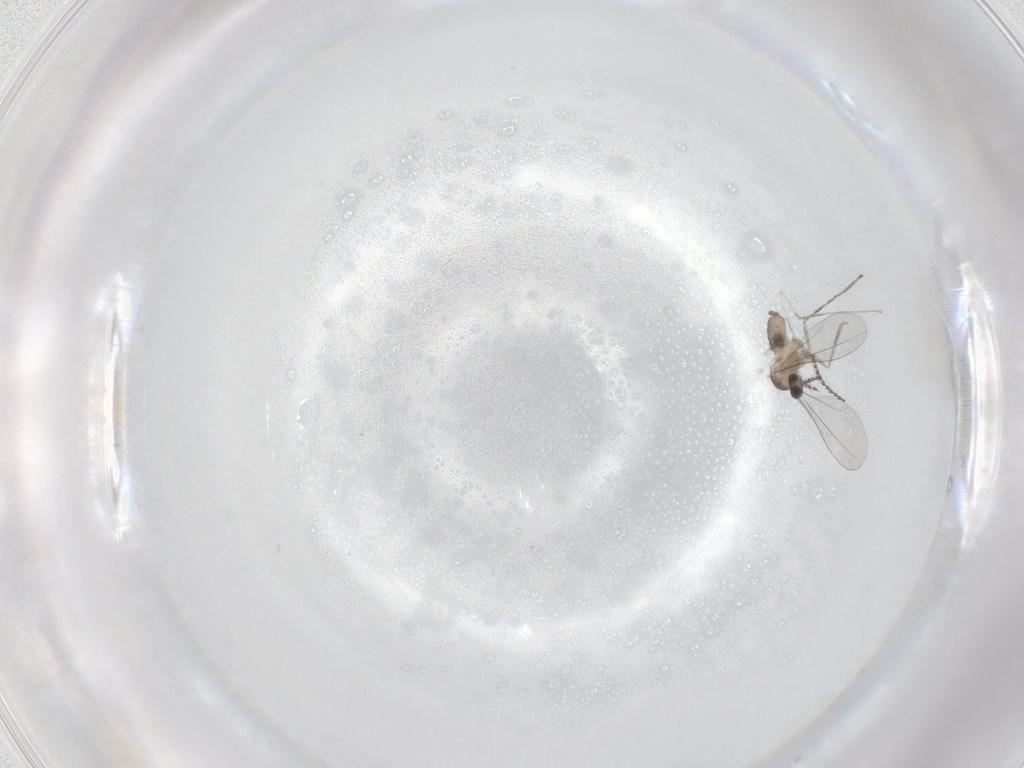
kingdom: Animalia
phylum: Arthropoda
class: Insecta
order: Diptera
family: Cecidomyiidae
